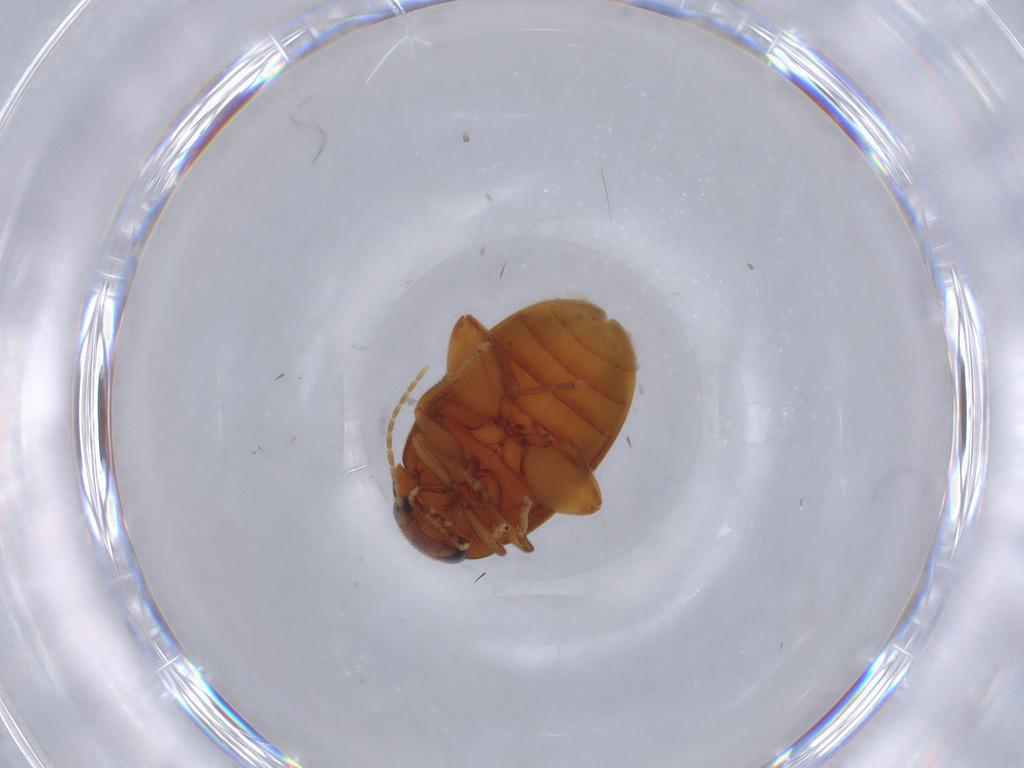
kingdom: Animalia
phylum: Arthropoda
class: Insecta
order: Coleoptera
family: Scirtidae
